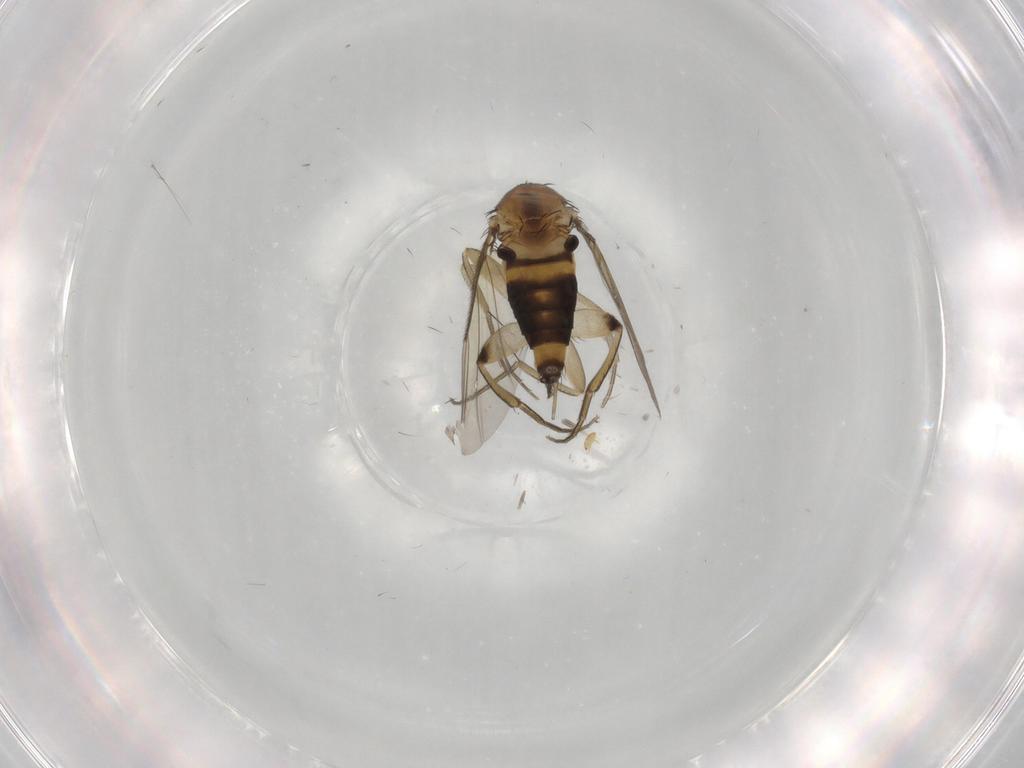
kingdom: Animalia
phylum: Arthropoda
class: Insecta
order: Diptera
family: Phoridae
